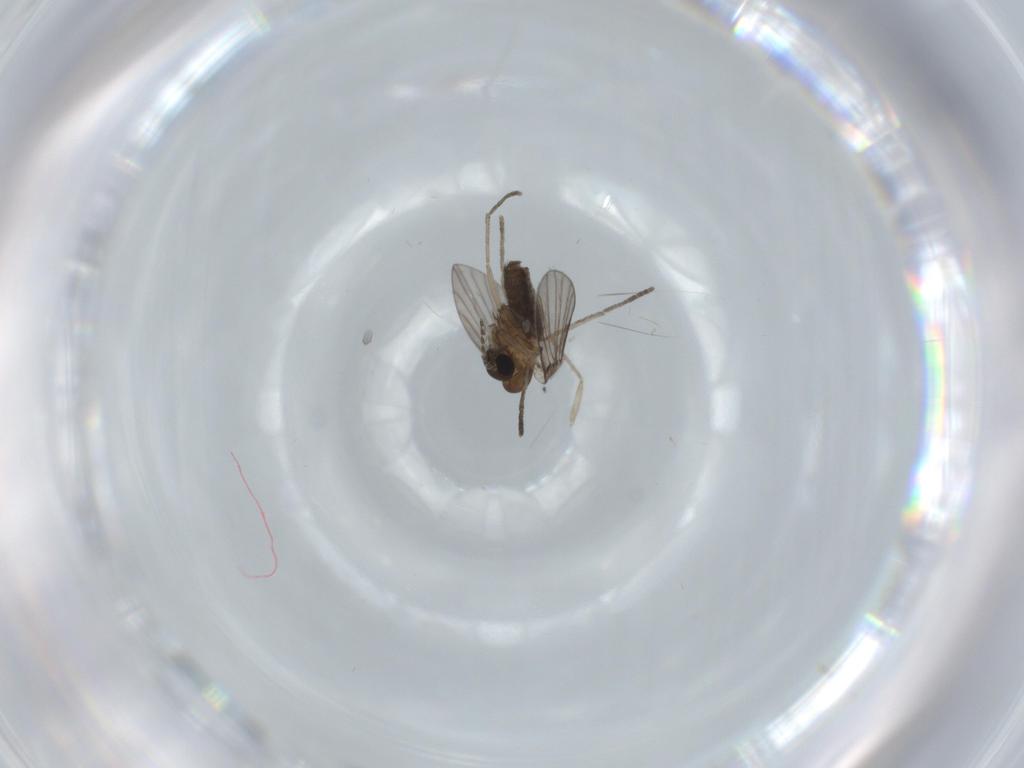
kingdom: Animalia
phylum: Arthropoda
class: Insecta
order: Diptera
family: Psychodidae
